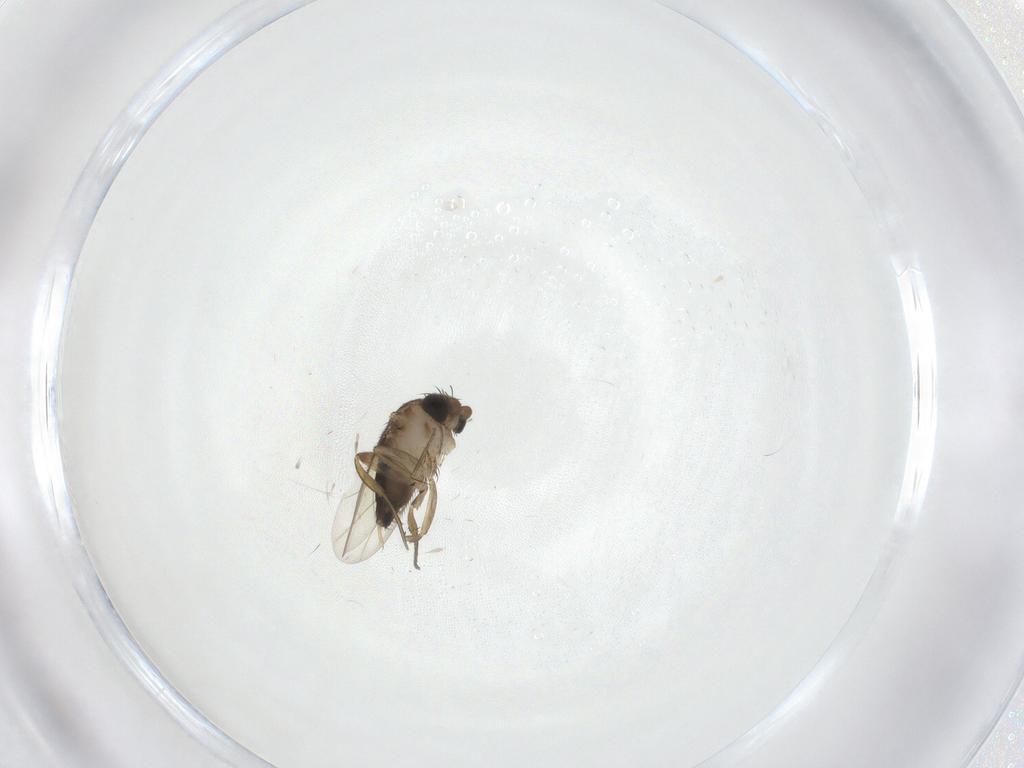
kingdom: Animalia
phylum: Arthropoda
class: Insecta
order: Diptera
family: Phoridae
